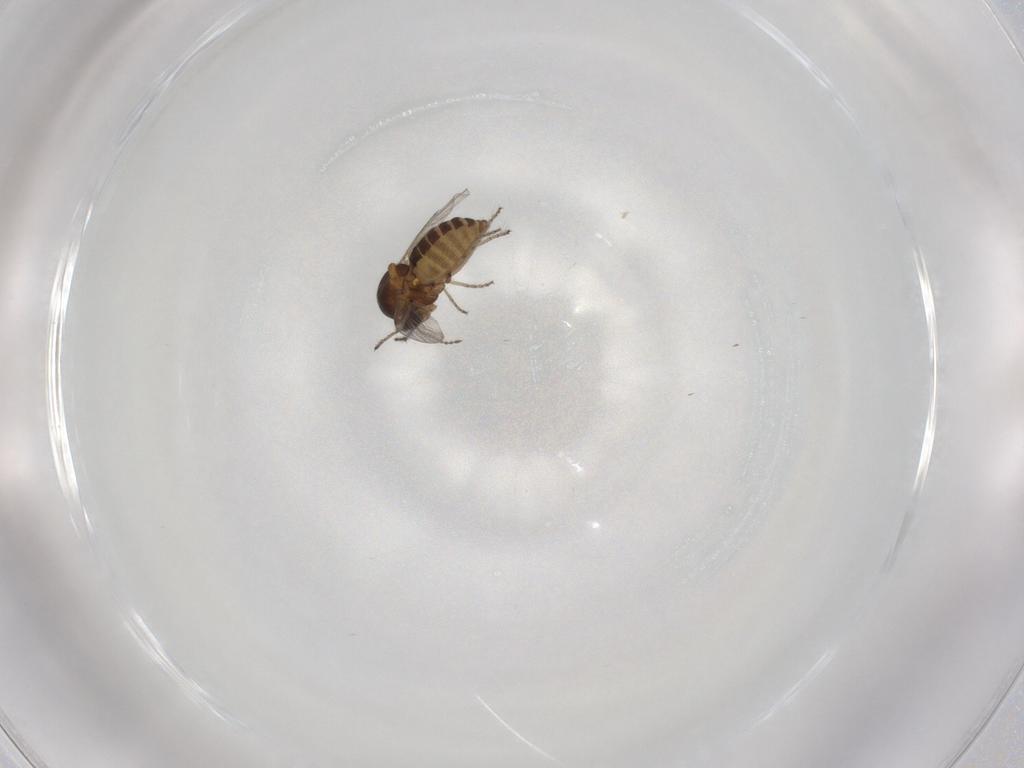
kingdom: Animalia
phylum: Arthropoda
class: Insecta
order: Diptera
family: Ceratopogonidae
